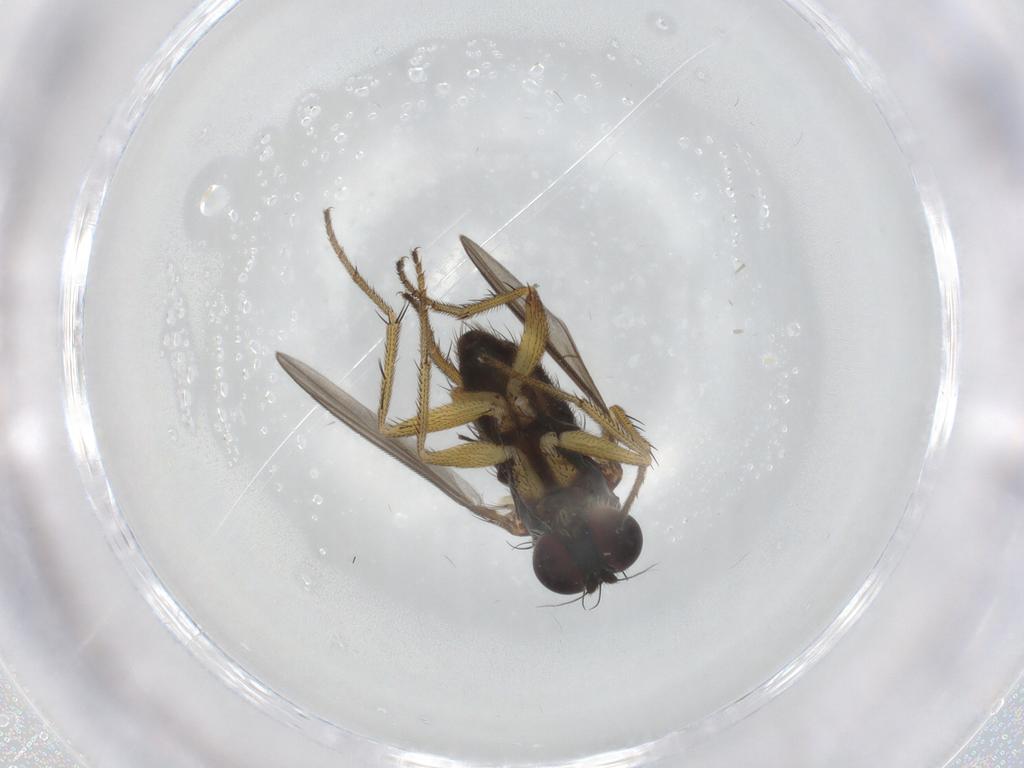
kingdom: Animalia
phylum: Arthropoda
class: Insecta
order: Diptera
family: Dolichopodidae
